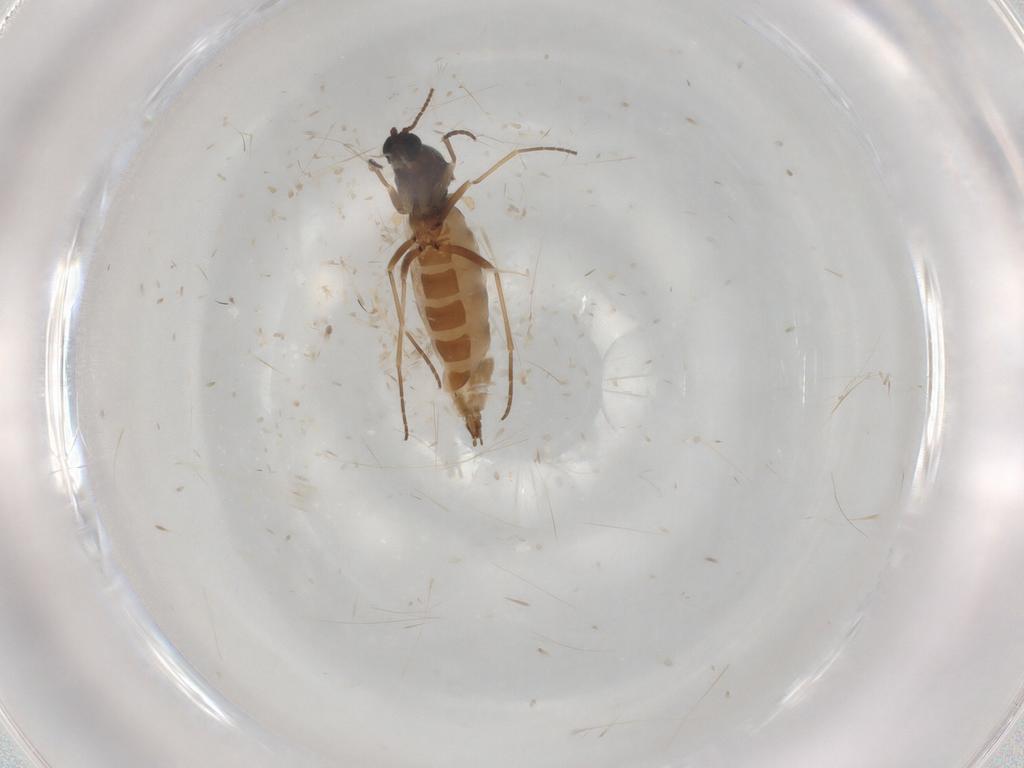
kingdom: Animalia
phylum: Arthropoda
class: Insecta
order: Diptera
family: Sciaridae
